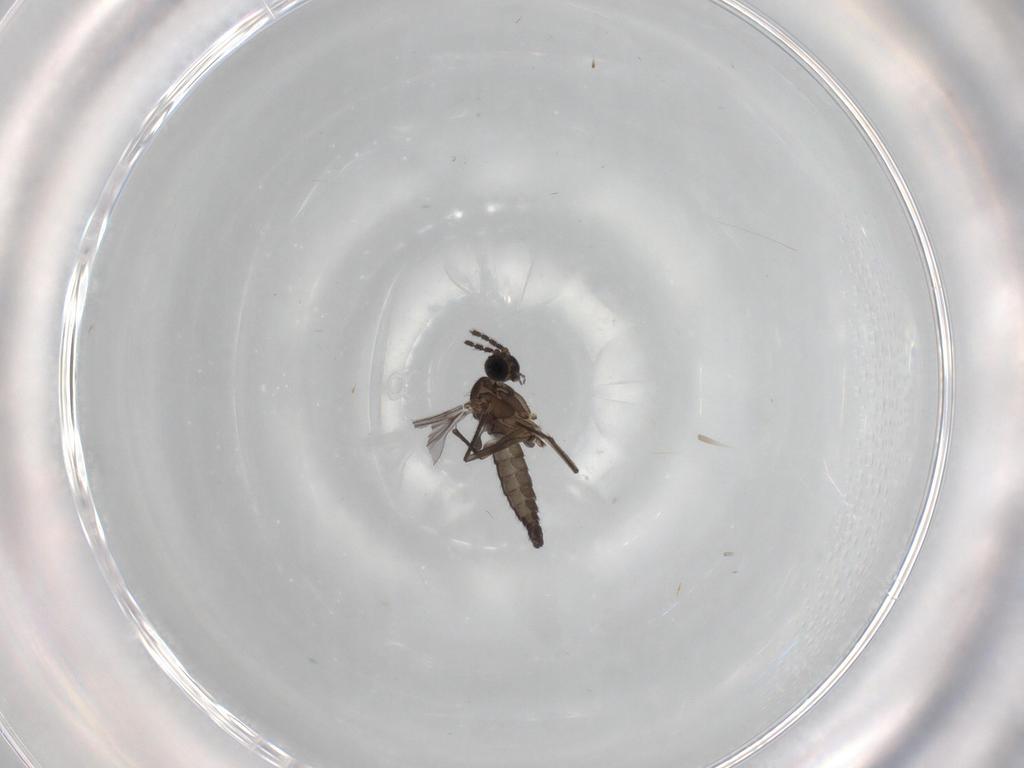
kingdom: Animalia
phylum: Arthropoda
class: Insecta
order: Diptera
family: Sciaridae
